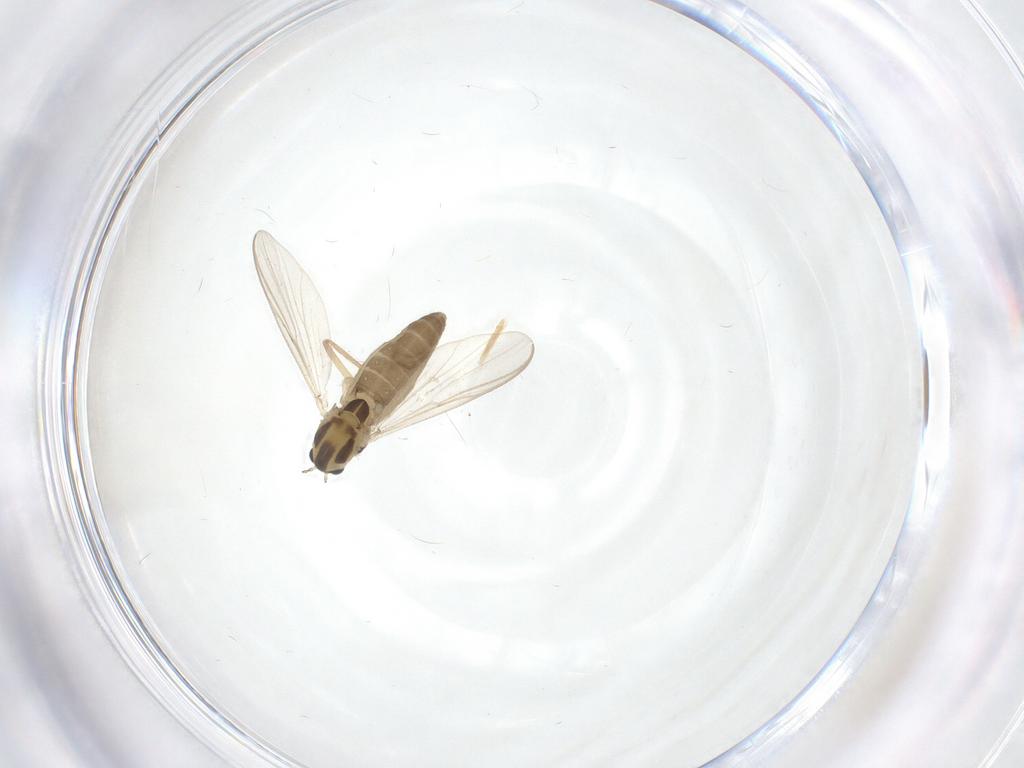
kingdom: Animalia
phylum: Arthropoda
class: Insecta
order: Diptera
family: Chironomidae
